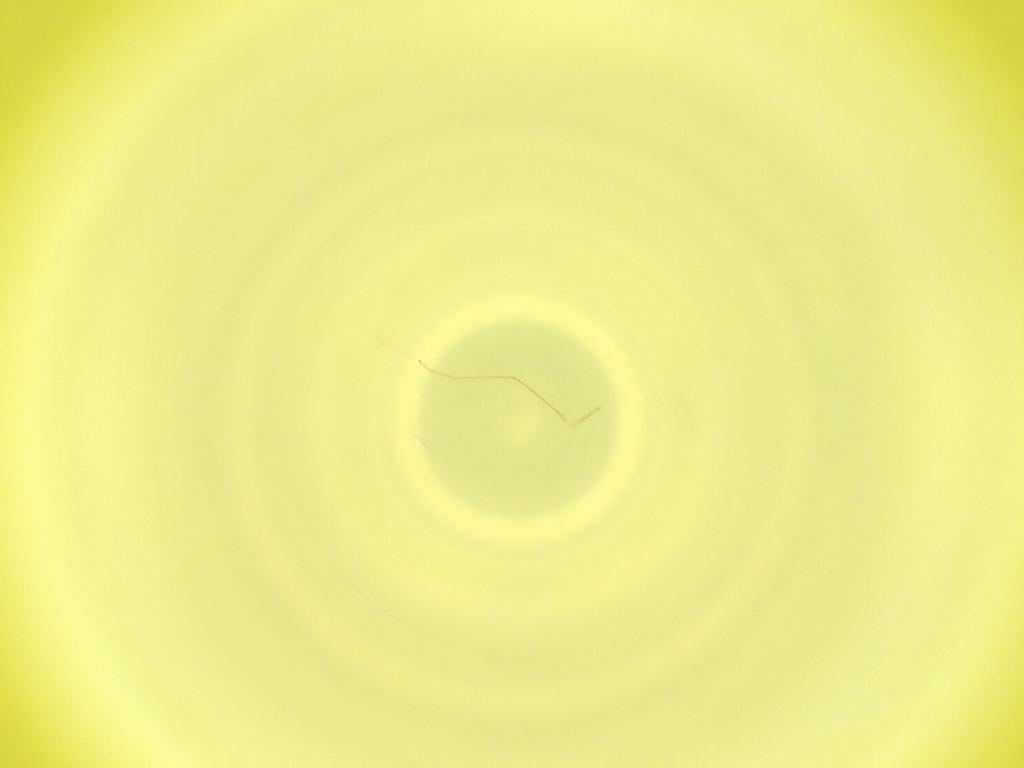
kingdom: Animalia
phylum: Arthropoda
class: Insecta
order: Diptera
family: Cecidomyiidae
